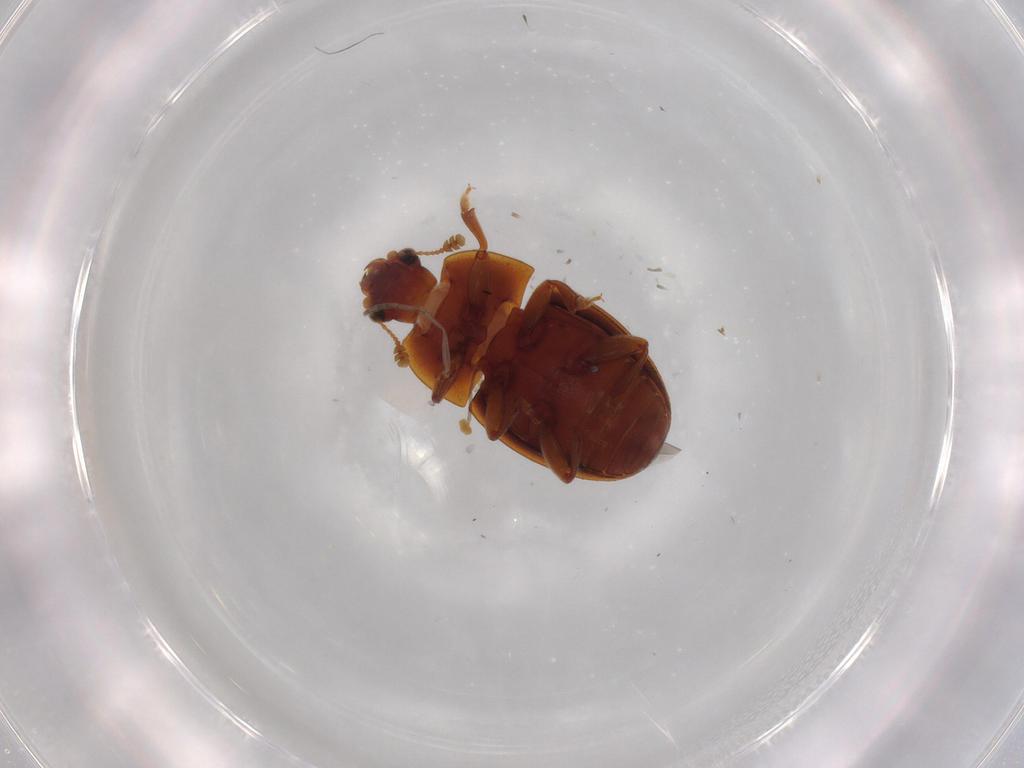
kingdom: Animalia
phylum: Arthropoda
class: Insecta
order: Coleoptera
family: Nitidulidae
